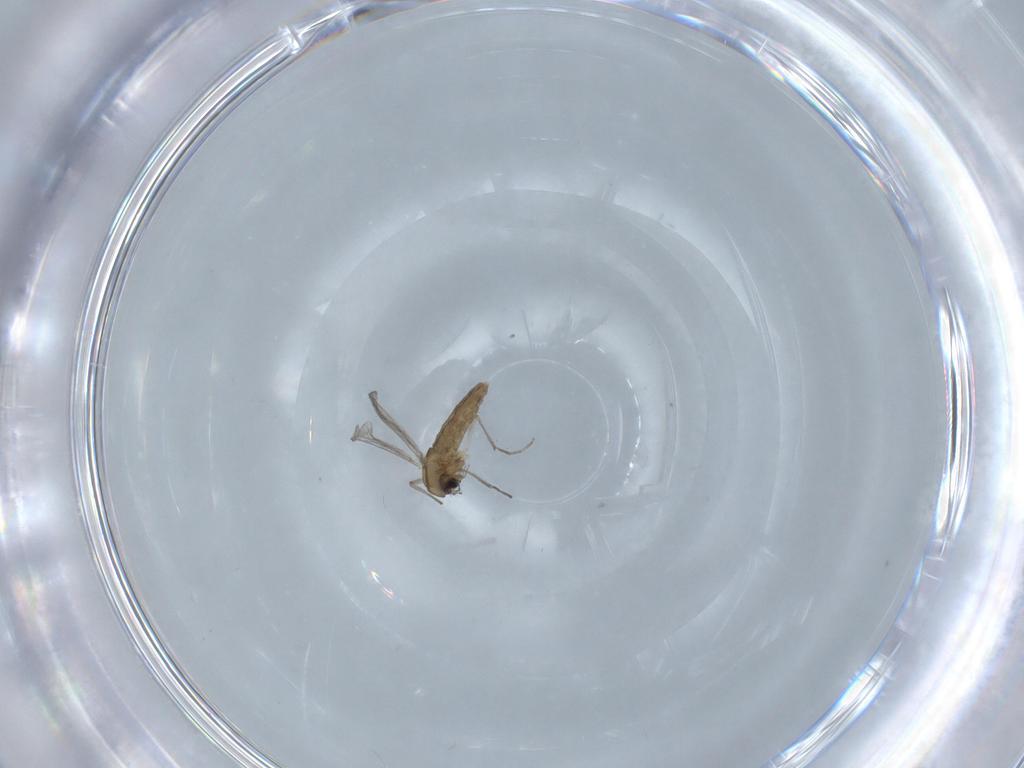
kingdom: Animalia
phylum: Arthropoda
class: Insecta
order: Diptera
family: Chironomidae
